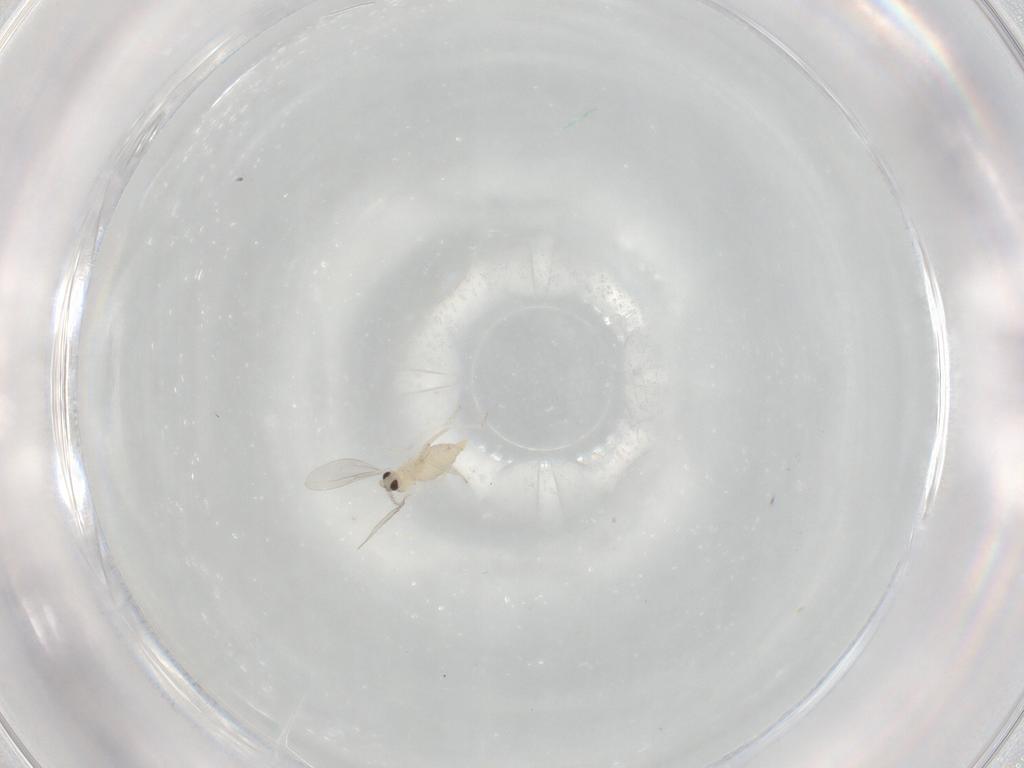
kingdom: Animalia
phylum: Arthropoda
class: Insecta
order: Diptera
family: Cecidomyiidae
